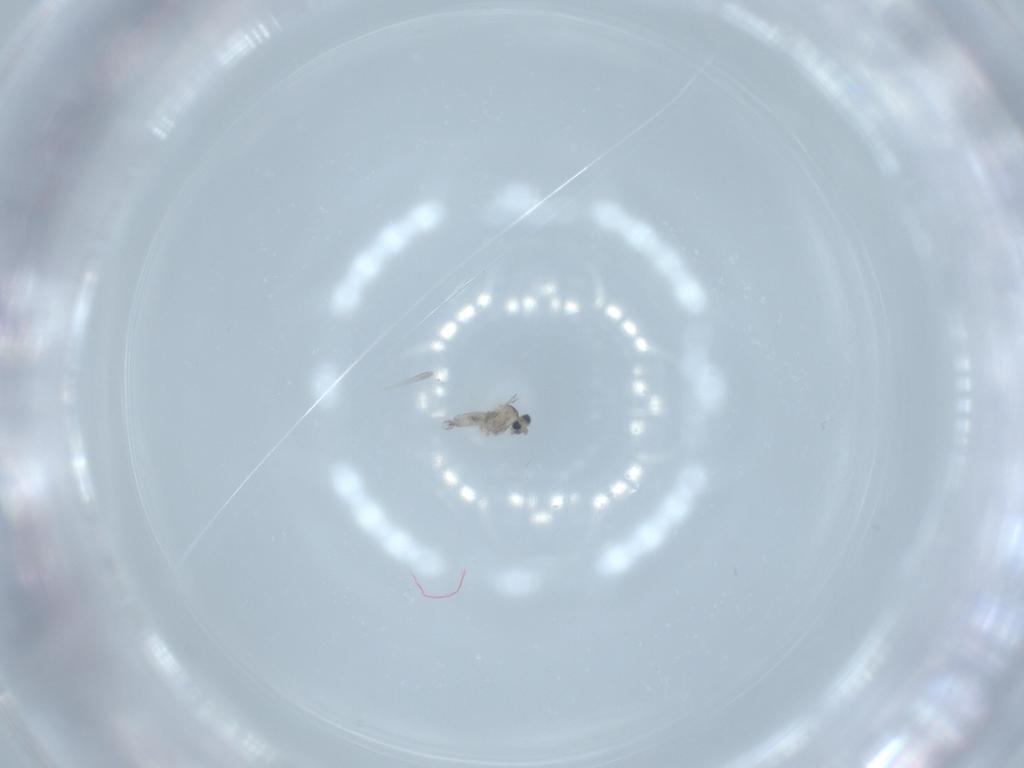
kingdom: Animalia
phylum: Arthropoda
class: Insecta
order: Diptera
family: Cecidomyiidae
